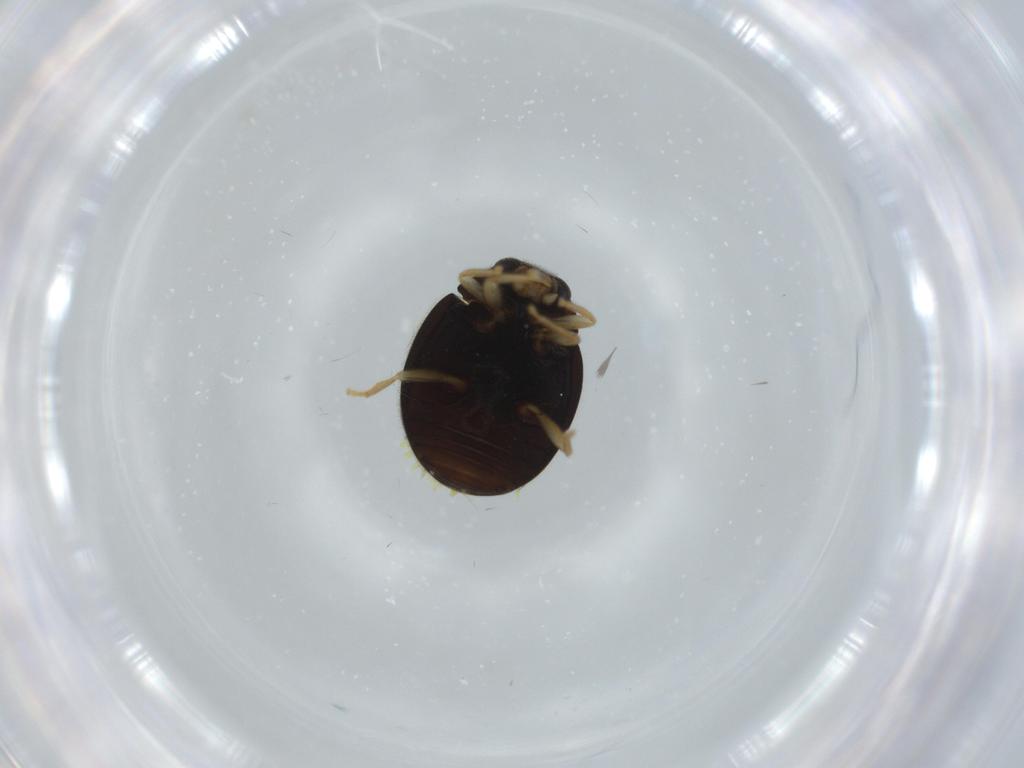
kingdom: Animalia
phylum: Arthropoda
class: Insecta
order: Coleoptera
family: Coccinellidae
